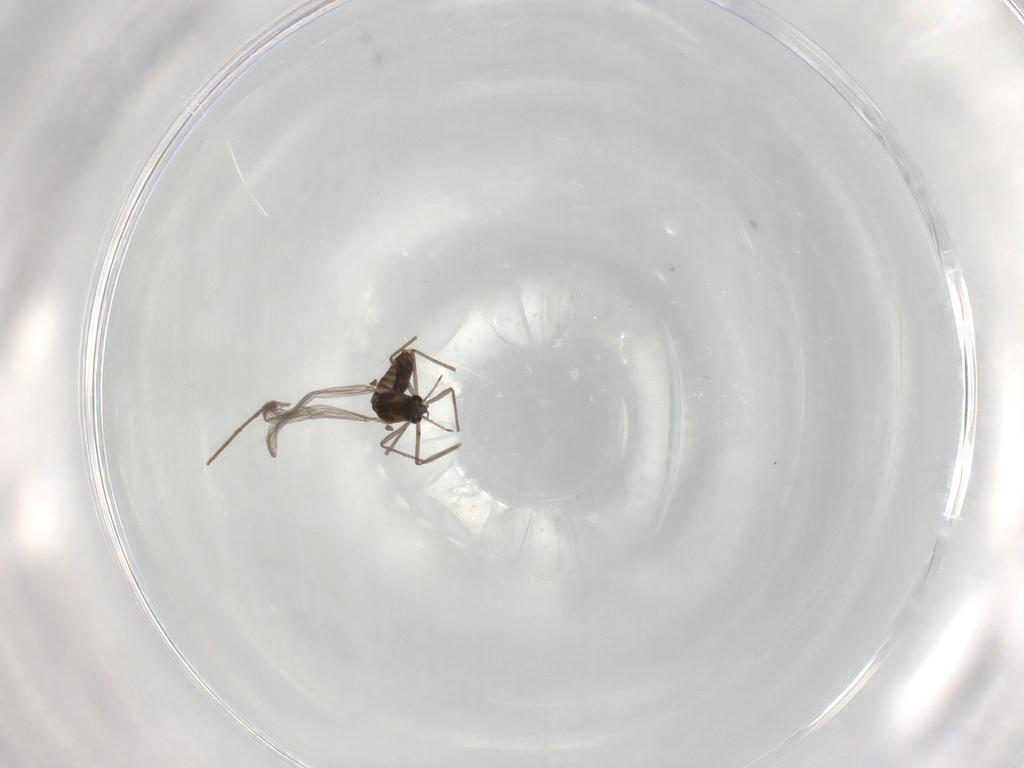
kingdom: Animalia
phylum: Arthropoda
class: Insecta
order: Diptera
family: Chironomidae
